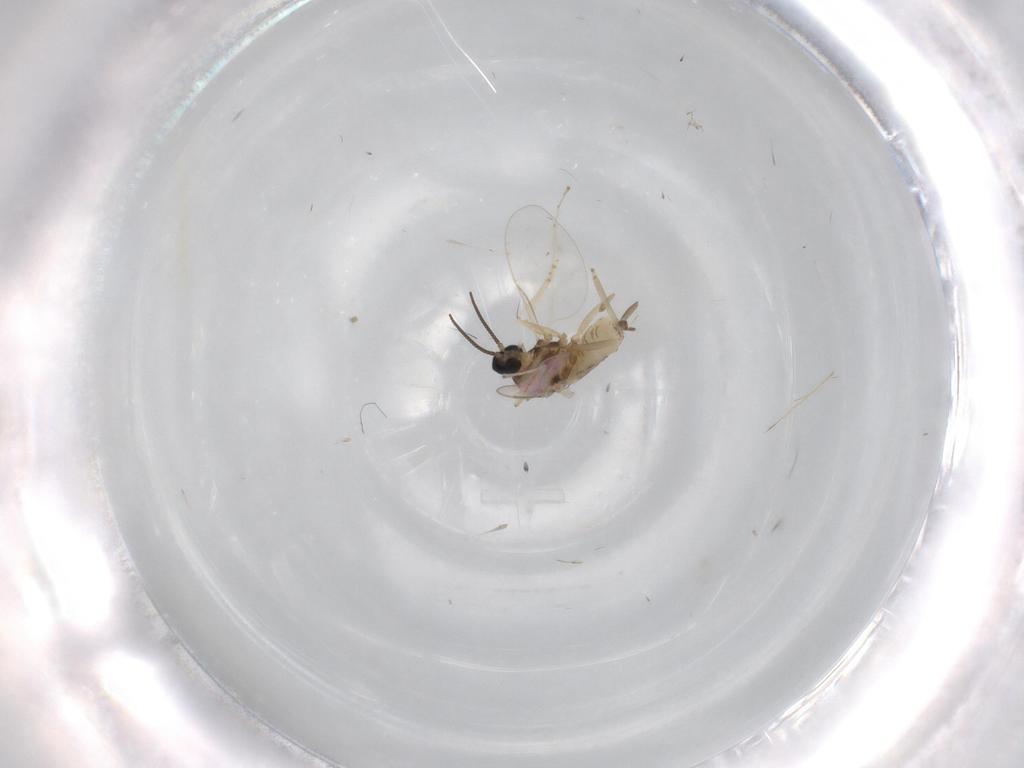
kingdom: Animalia
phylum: Arthropoda
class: Insecta
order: Diptera
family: Cecidomyiidae
